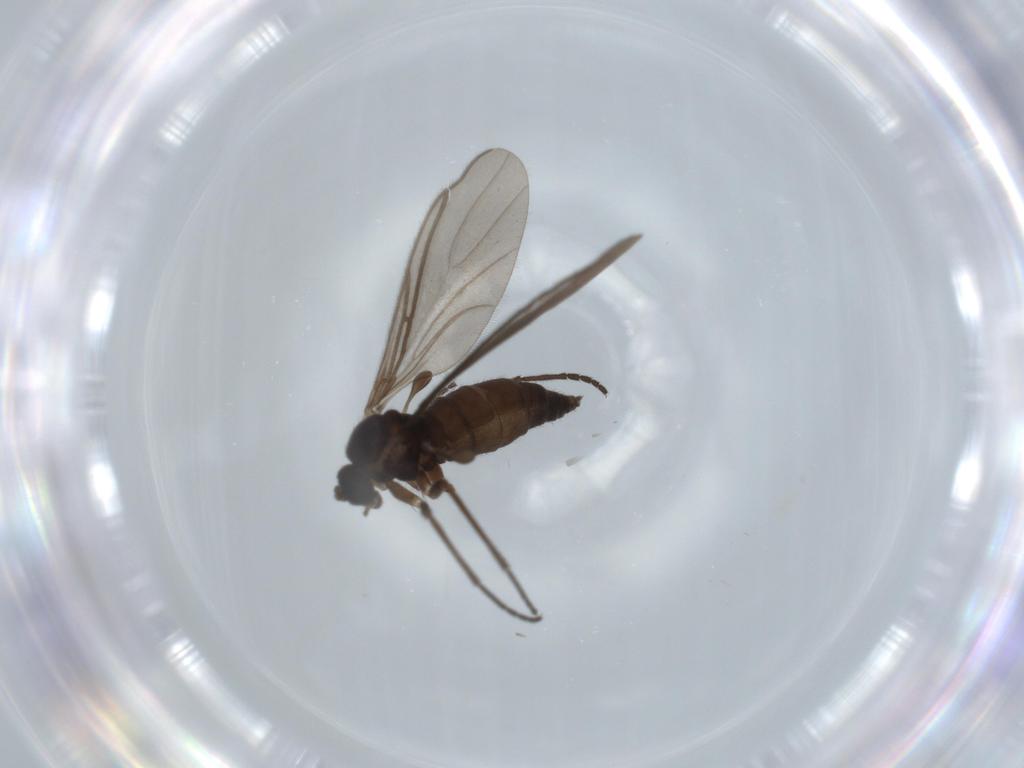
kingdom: Animalia
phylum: Arthropoda
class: Insecta
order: Diptera
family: Sciaridae
